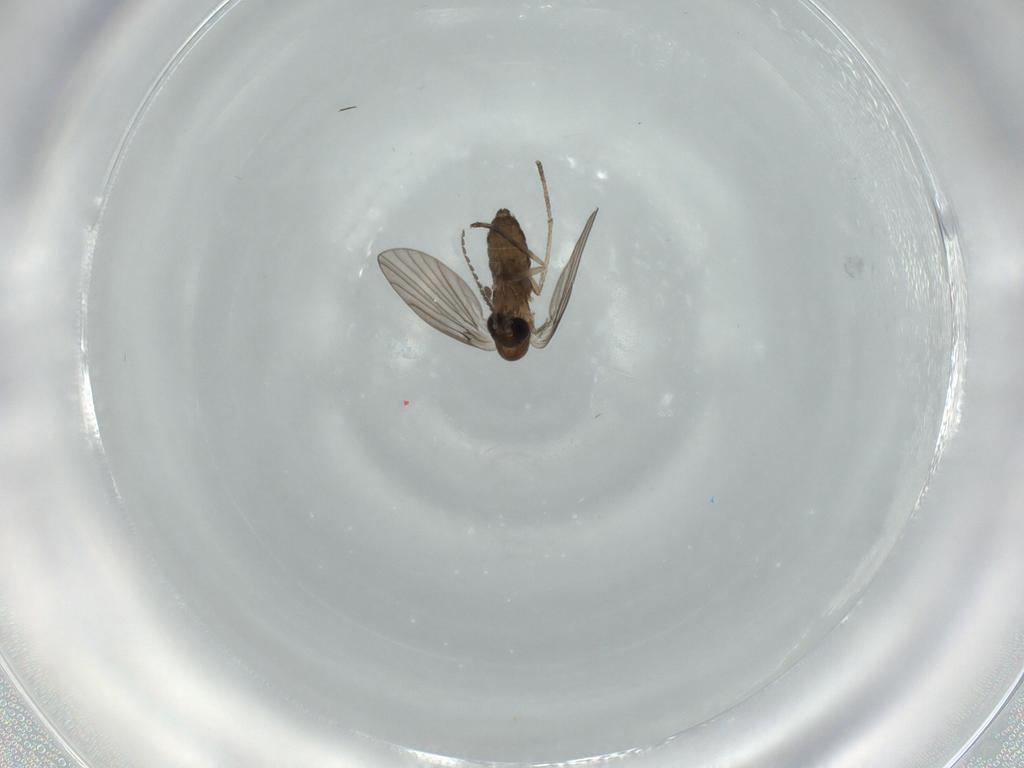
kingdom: Animalia
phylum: Arthropoda
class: Insecta
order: Diptera
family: Psychodidae
